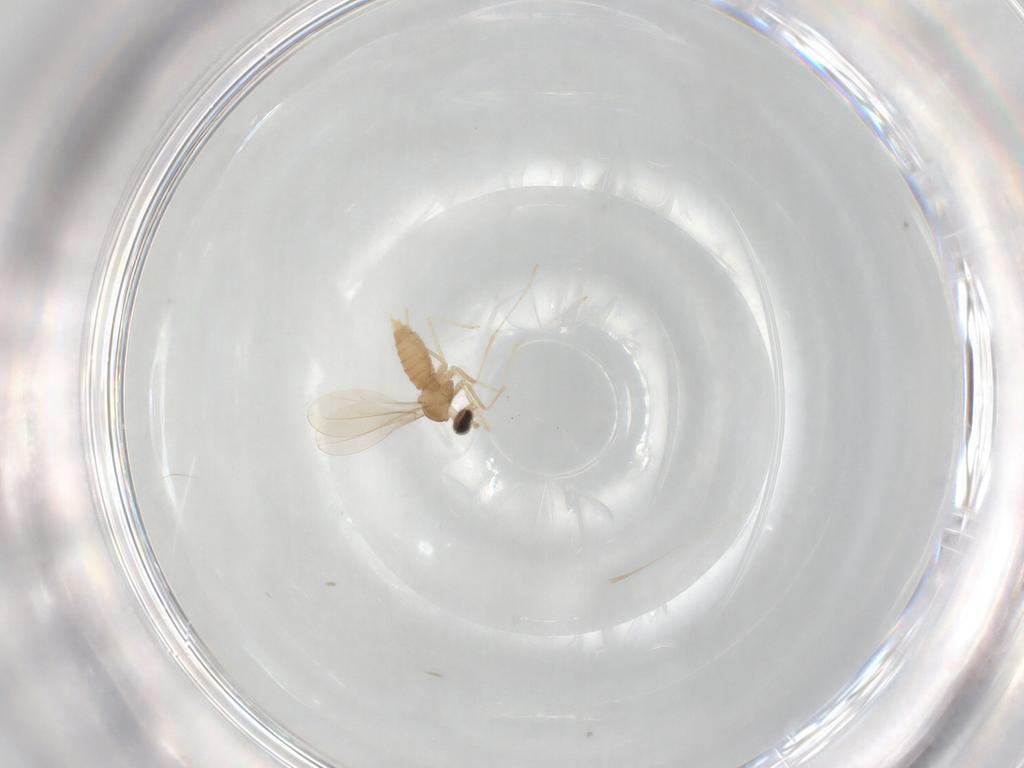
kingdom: Animalia
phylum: Arthropoda
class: Insecta
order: Diptera
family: Cecidomyiidae
